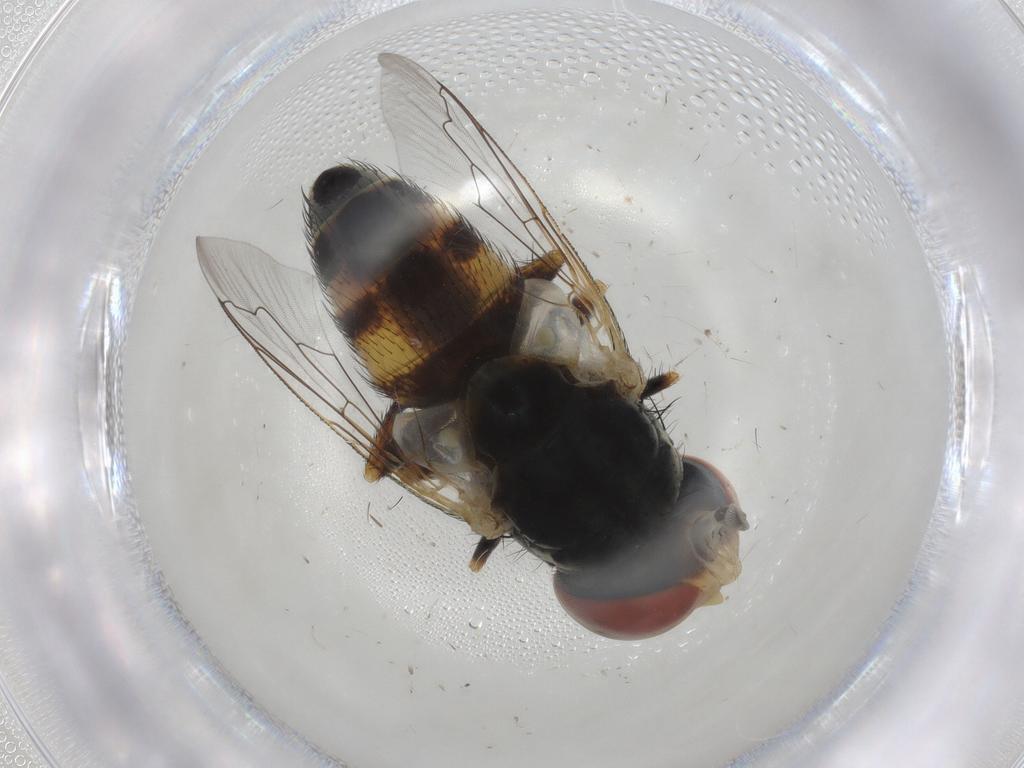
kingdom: Animalia
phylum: Arthropoda
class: Insecta
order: Diptera
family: Sarcophagidae
